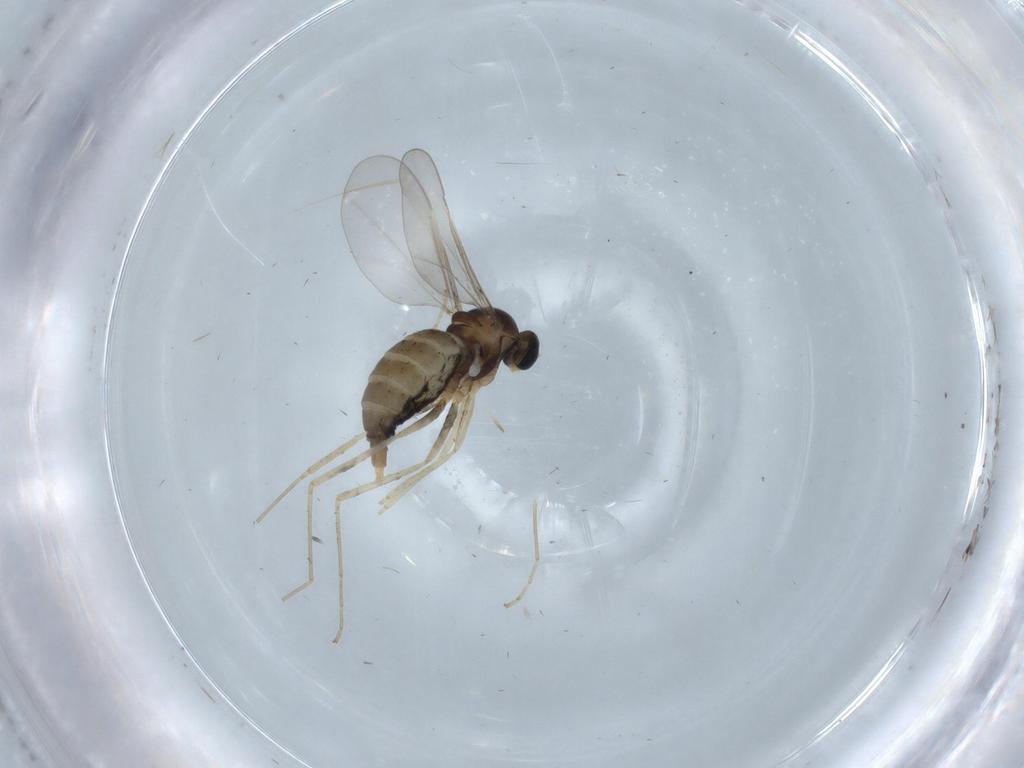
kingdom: Animalia
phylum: Arthropoda
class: Insecta
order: Diptera
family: Cecidomyiidae
